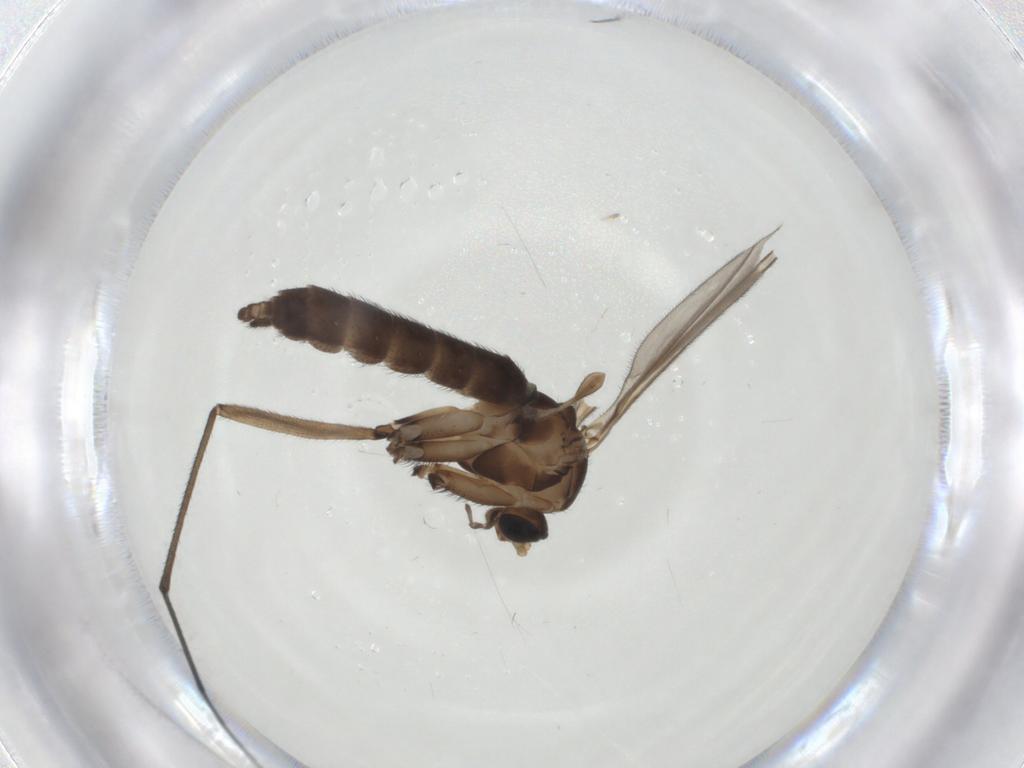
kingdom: Animalia
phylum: Arthropoda
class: Insecta
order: Diptera
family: Sciaridae
